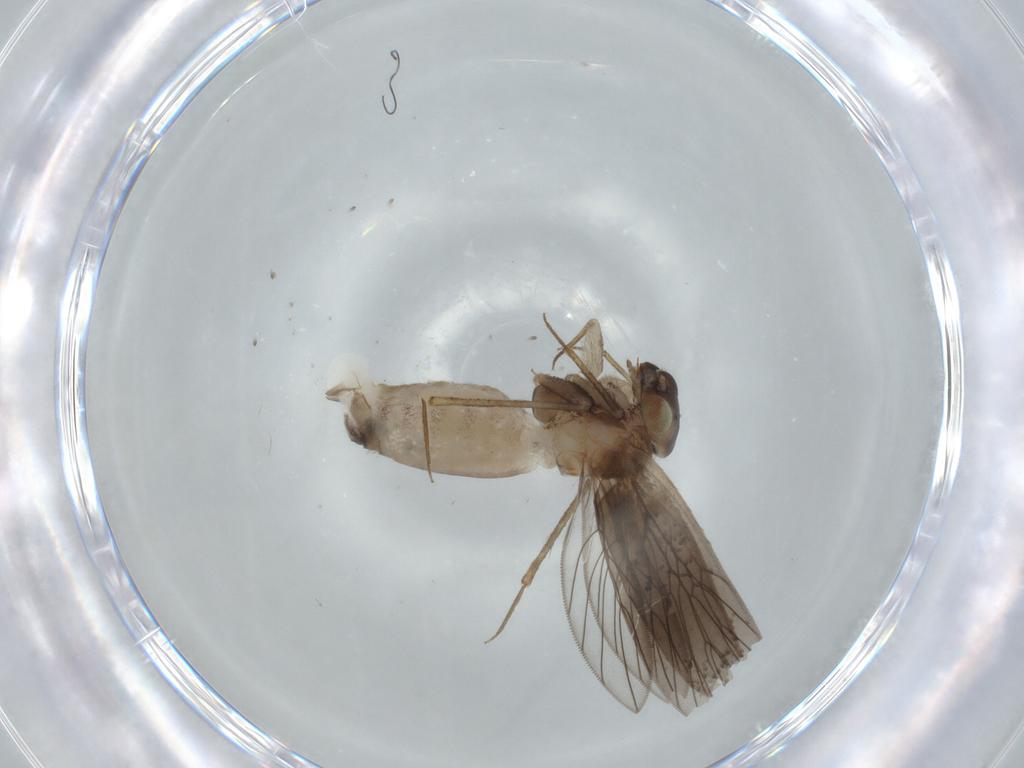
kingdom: Animalia
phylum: Arthropoda
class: Insecta
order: Psocodea
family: Lepidopsocidae
